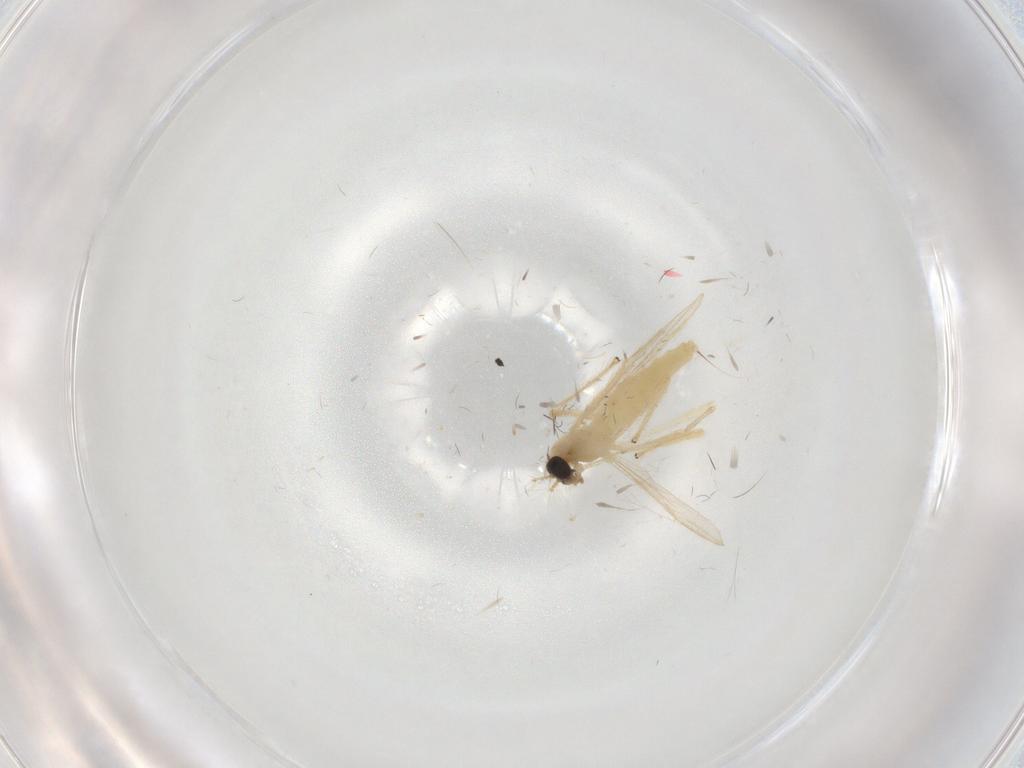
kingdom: Animalia
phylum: Arthropoda
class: Insecta
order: Diptera
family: Chironomidae
